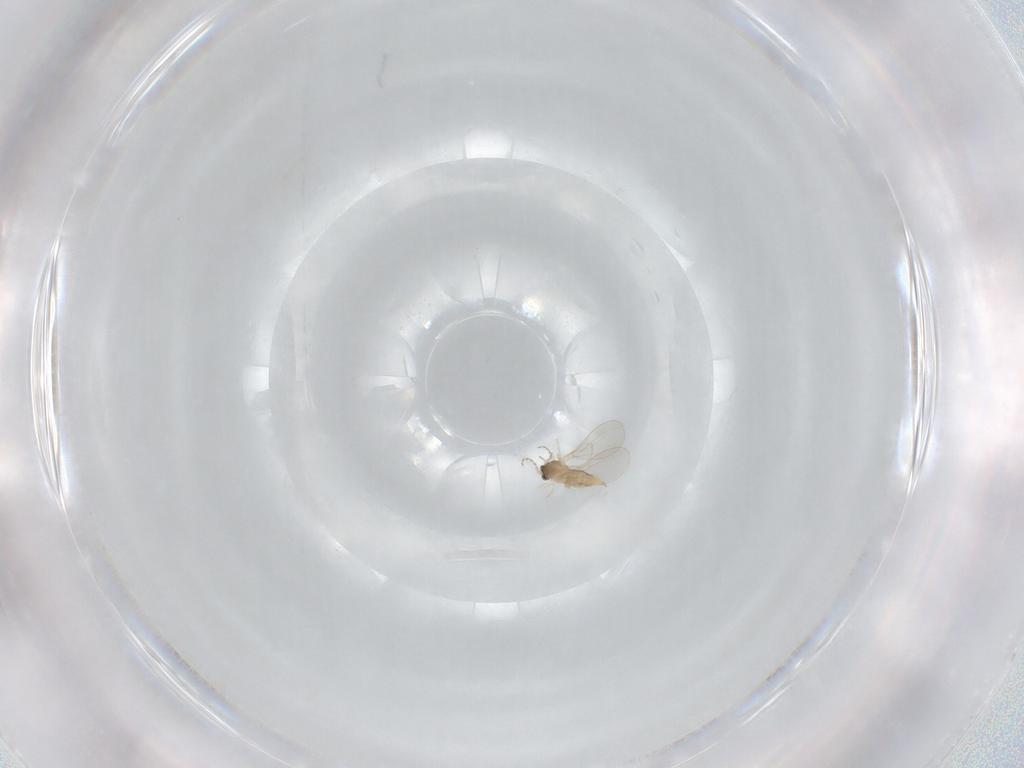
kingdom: Animalia
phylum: Arthropoda
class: Insecta
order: Diptera
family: Cecidomyiidae
